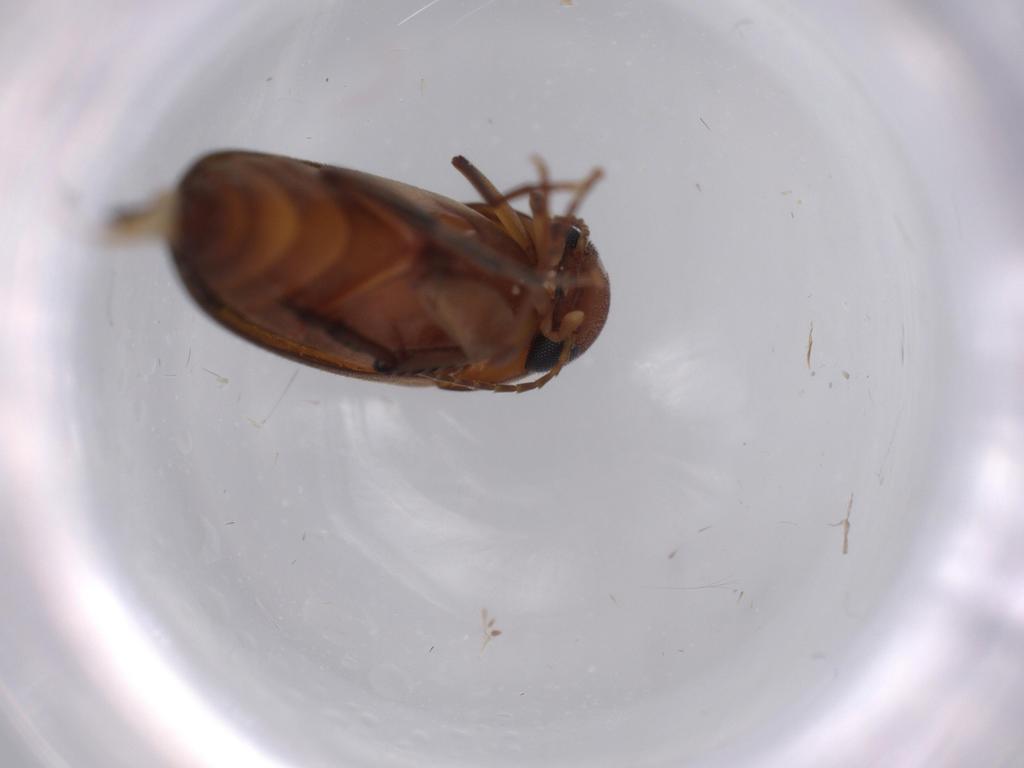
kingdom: Animalia
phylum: Arthropoda
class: Insecta
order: Coleoptera
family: Mordellidae
